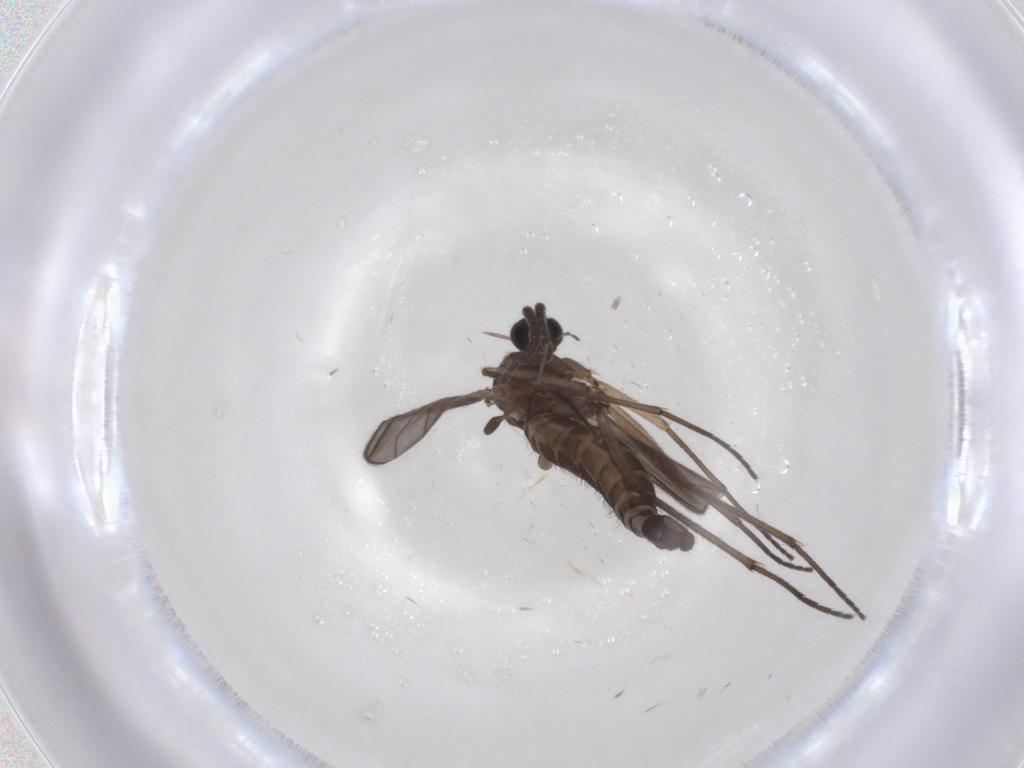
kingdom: Animalia
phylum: Arthropoda
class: Insecta
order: Diptera
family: Sciaridae
